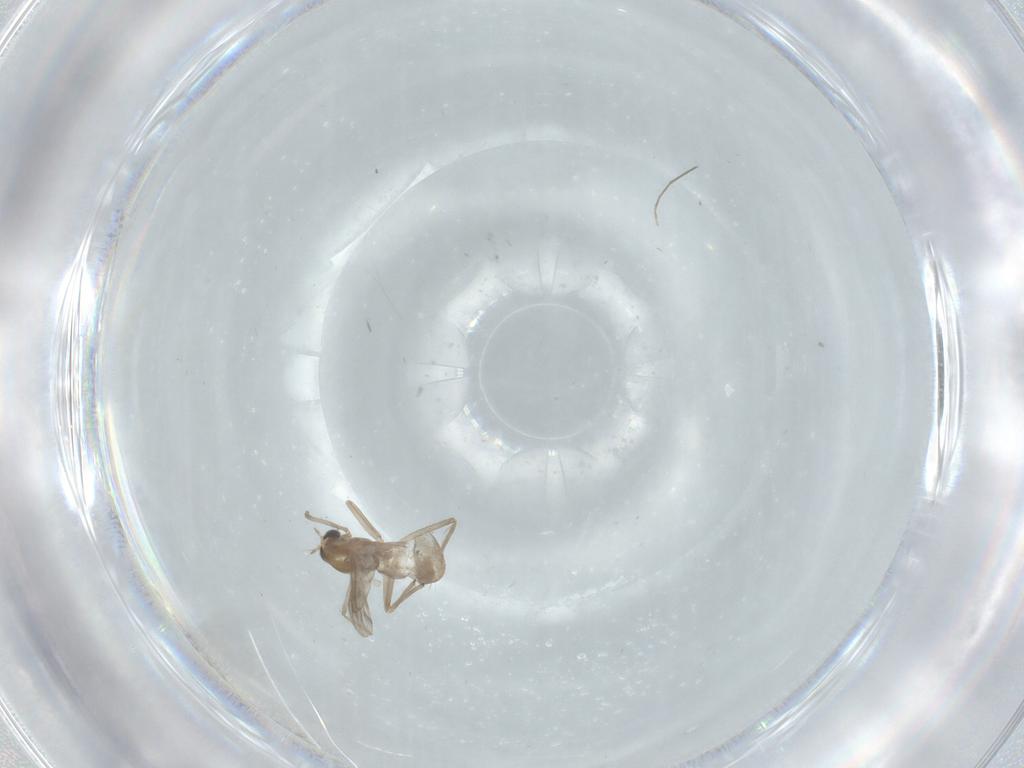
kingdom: Animalia
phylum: Arthropoda
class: Insecta
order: Diptera
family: Chironomidae
